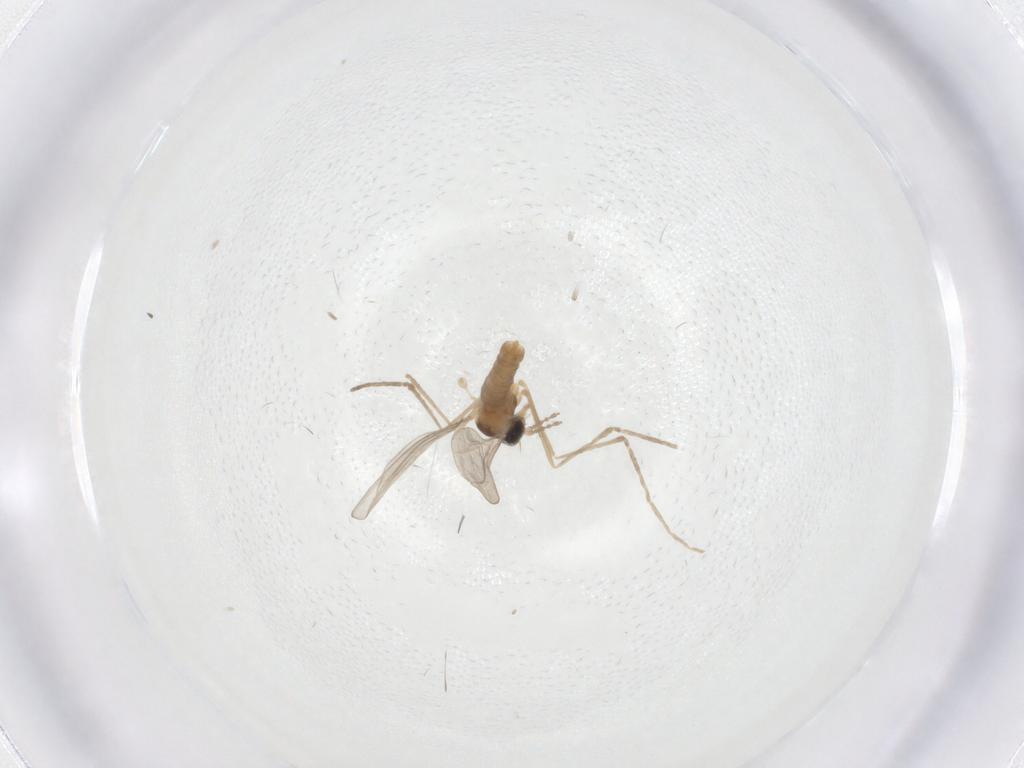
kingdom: Animalia
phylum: Arthropoda
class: Insecta
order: Diptera
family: Cecidomyiidae
